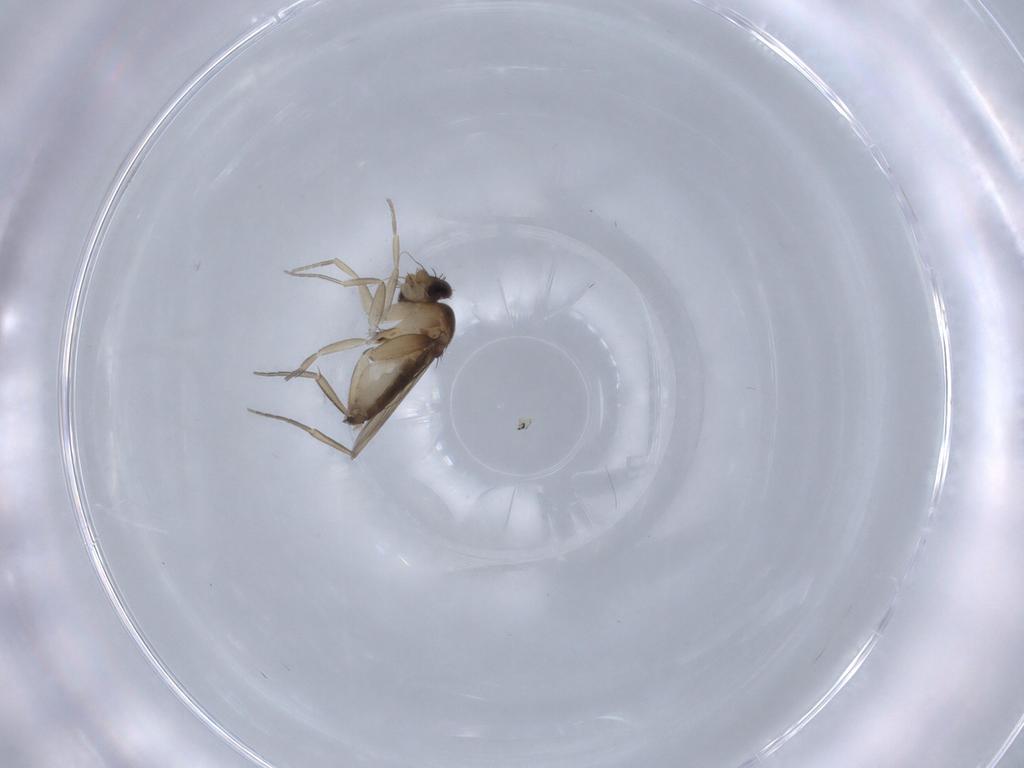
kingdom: Animalia
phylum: Arthropoda
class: Insecta
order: Diptera
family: Phoridae
